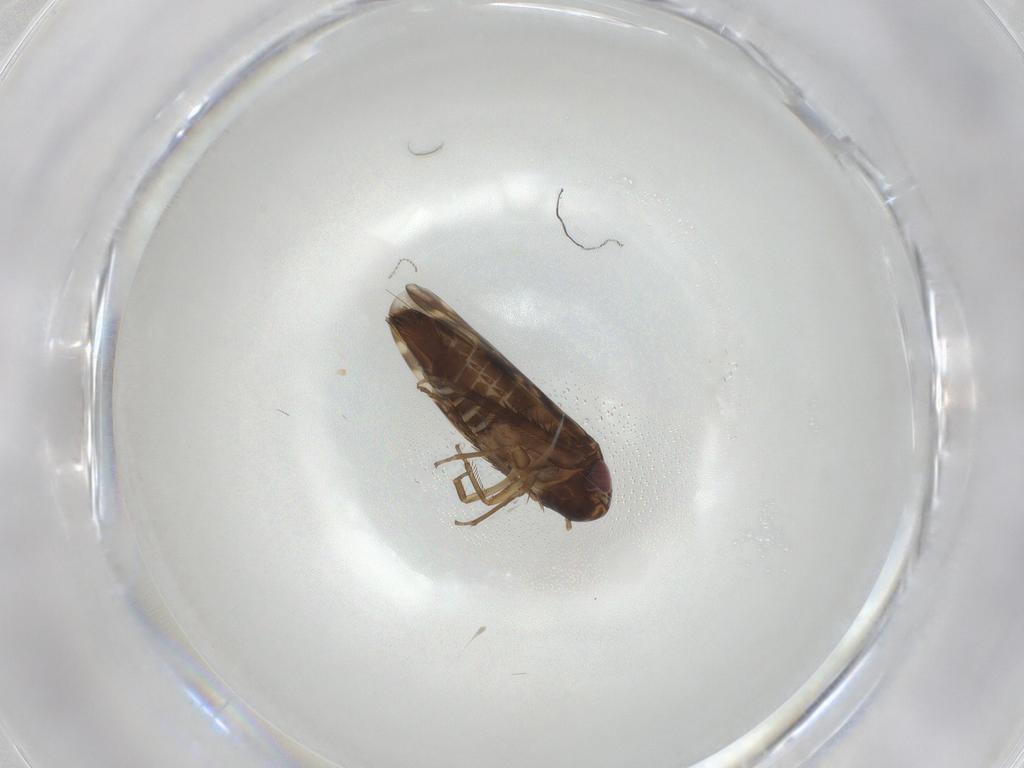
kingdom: Animalia
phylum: Arthropoda
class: Insecta
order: Hemiptera
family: Cicadellidae
